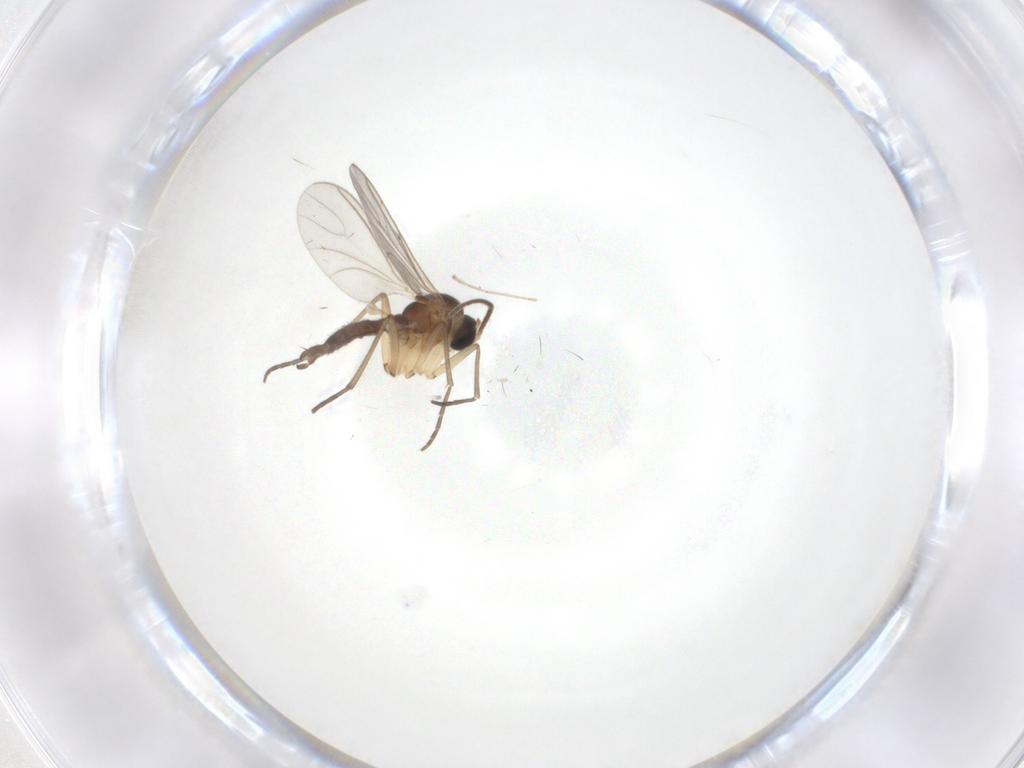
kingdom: Animalia
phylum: Arthropoda
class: Insecta
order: Diptera
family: Sciaridae
